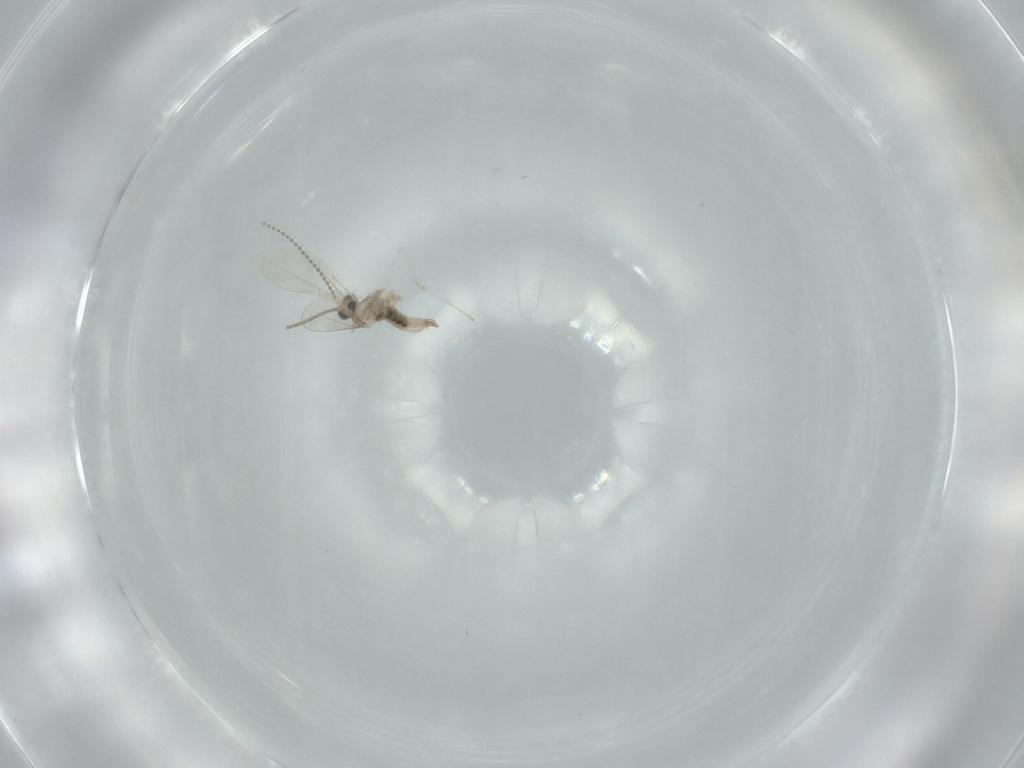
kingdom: Animalia
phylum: Arthropoda
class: Insecta
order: Diptera
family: Cecidomyiidae
